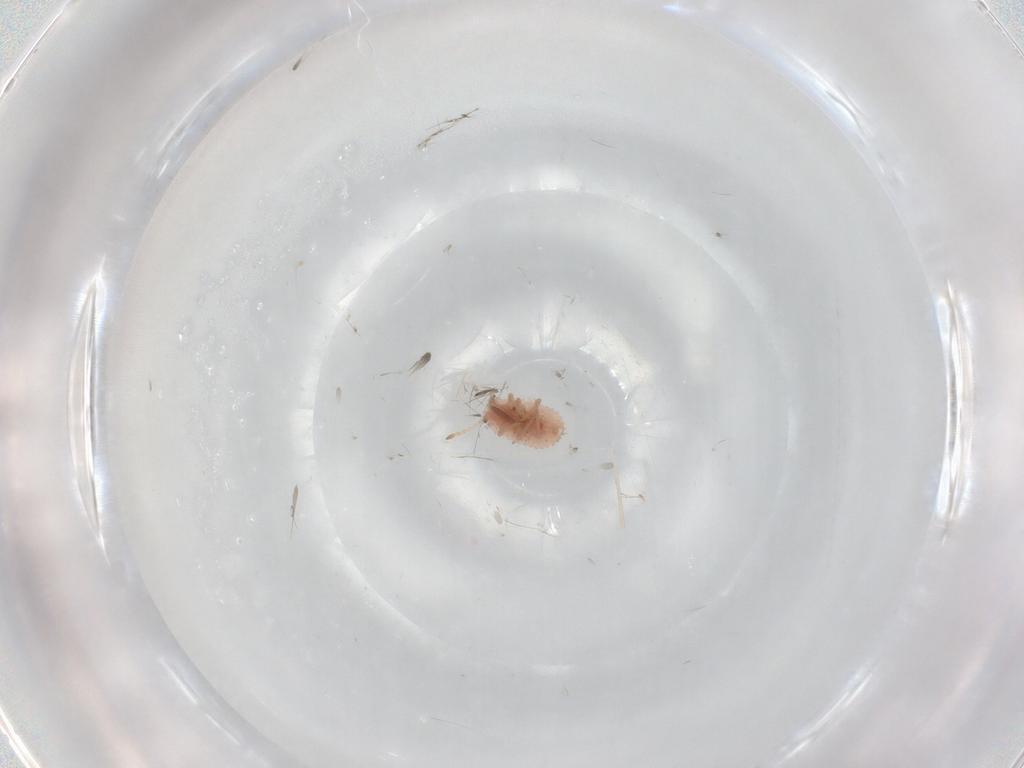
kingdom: Animalia
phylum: Arthropoda
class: Insecta
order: Hemiptera
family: Coccoidea_incertae_sedis
